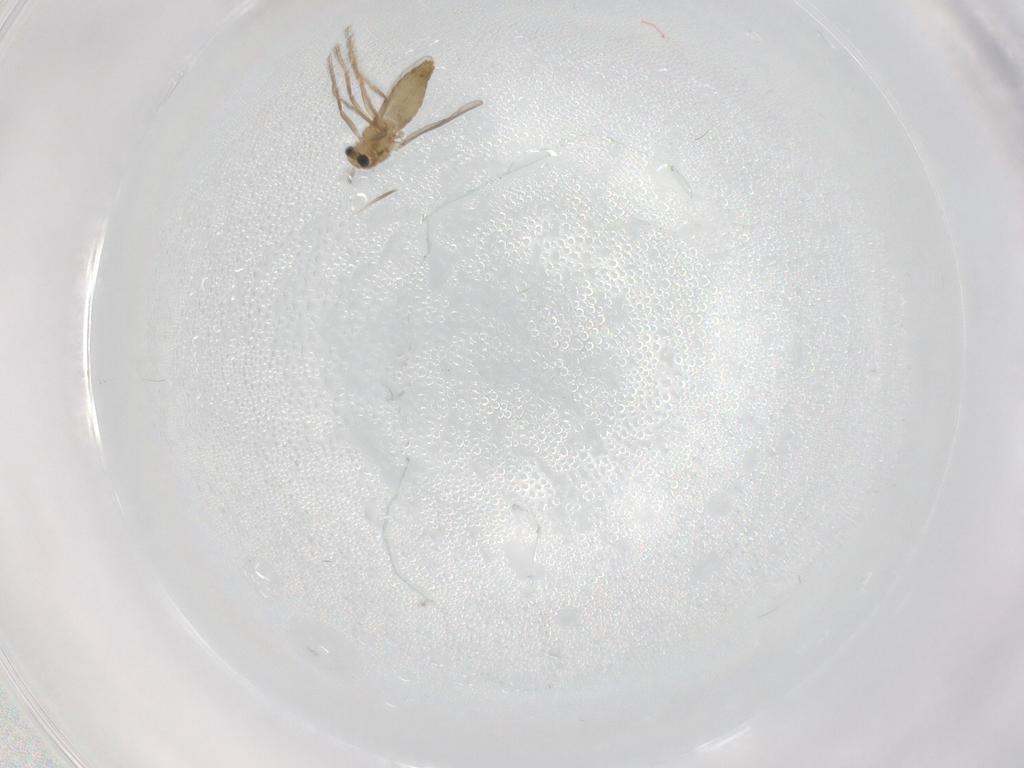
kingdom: Animalia
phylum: Arthropoda
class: Insecta
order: Diptera
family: Chironomidae
